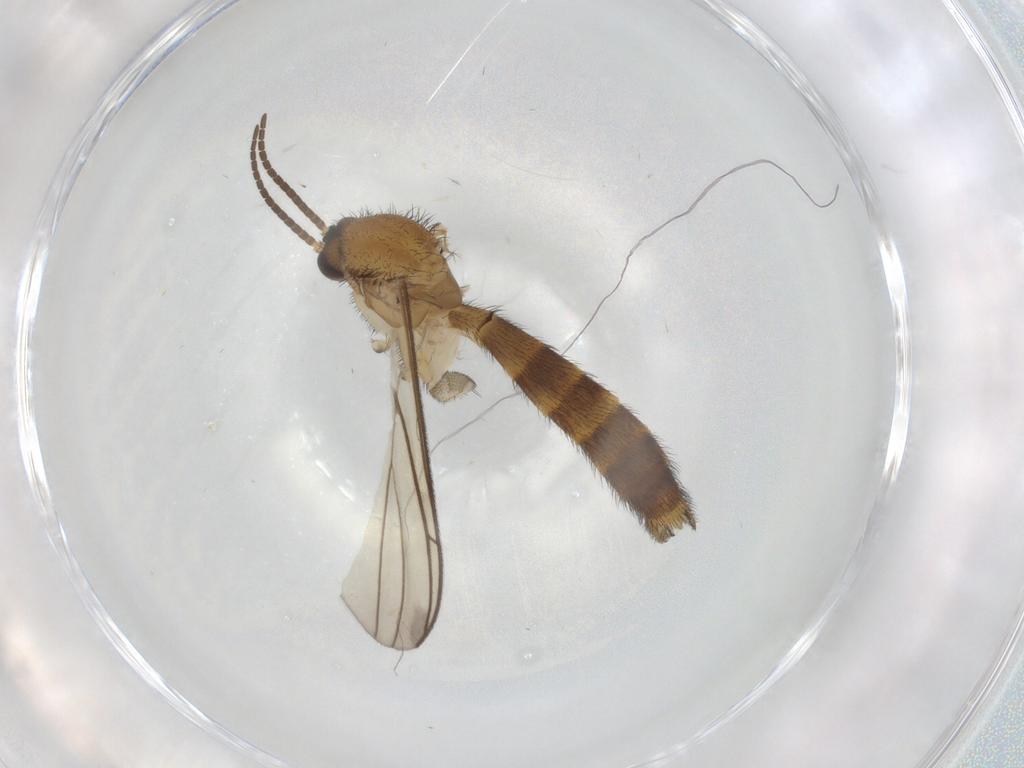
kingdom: Animalia
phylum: Arthropoda
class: Insecta
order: Diptera
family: Keroplatidae
